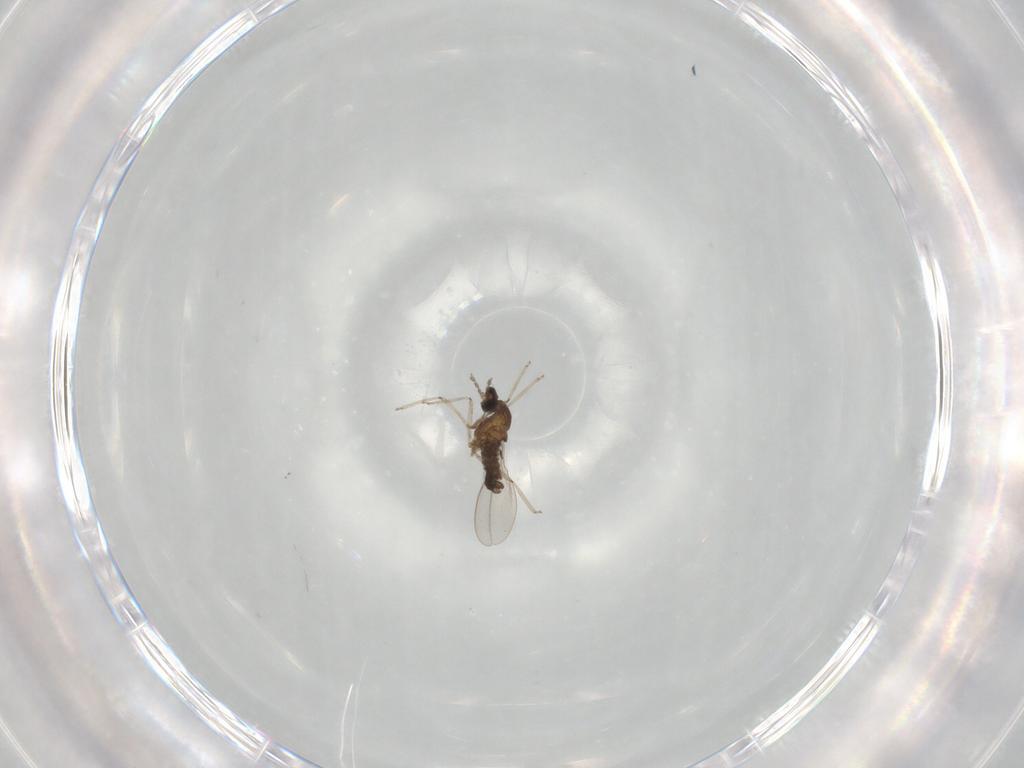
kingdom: Animalia
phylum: Arthropoda
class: Insecta
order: Diptera
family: Cecidomyiidae
